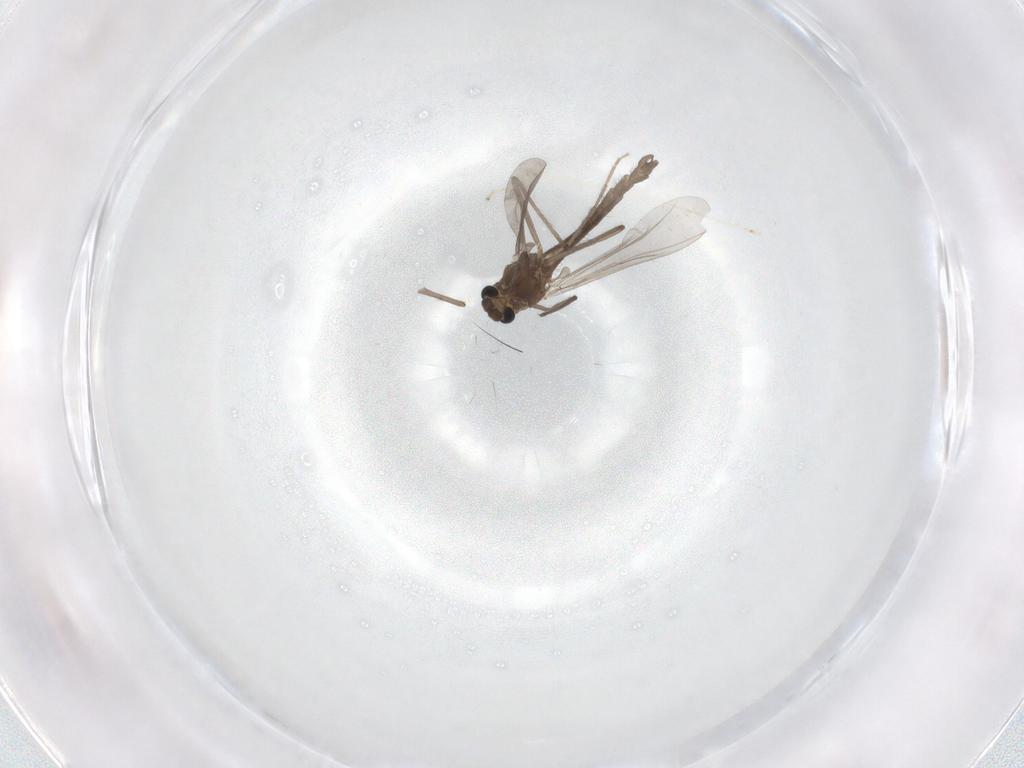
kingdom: Animalia
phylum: Arthropoda
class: Insecta
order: Diptera
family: Chironomidae
